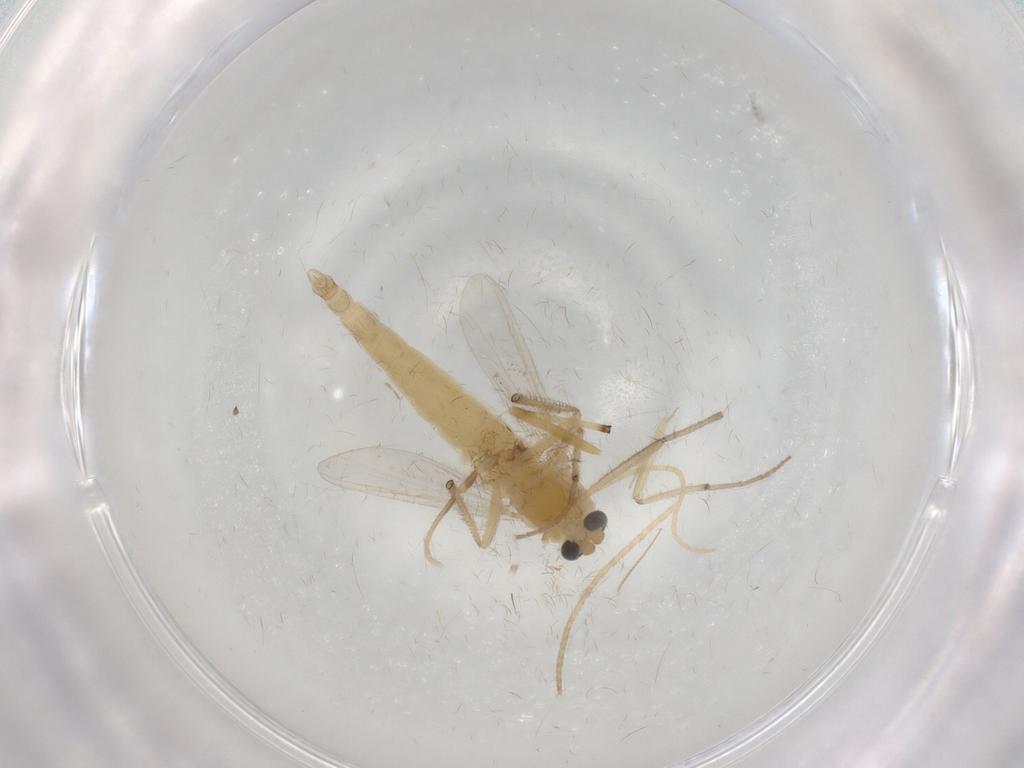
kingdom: Animalia
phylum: Arthropoda
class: Insecta
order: Diptera
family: Chironomidae
